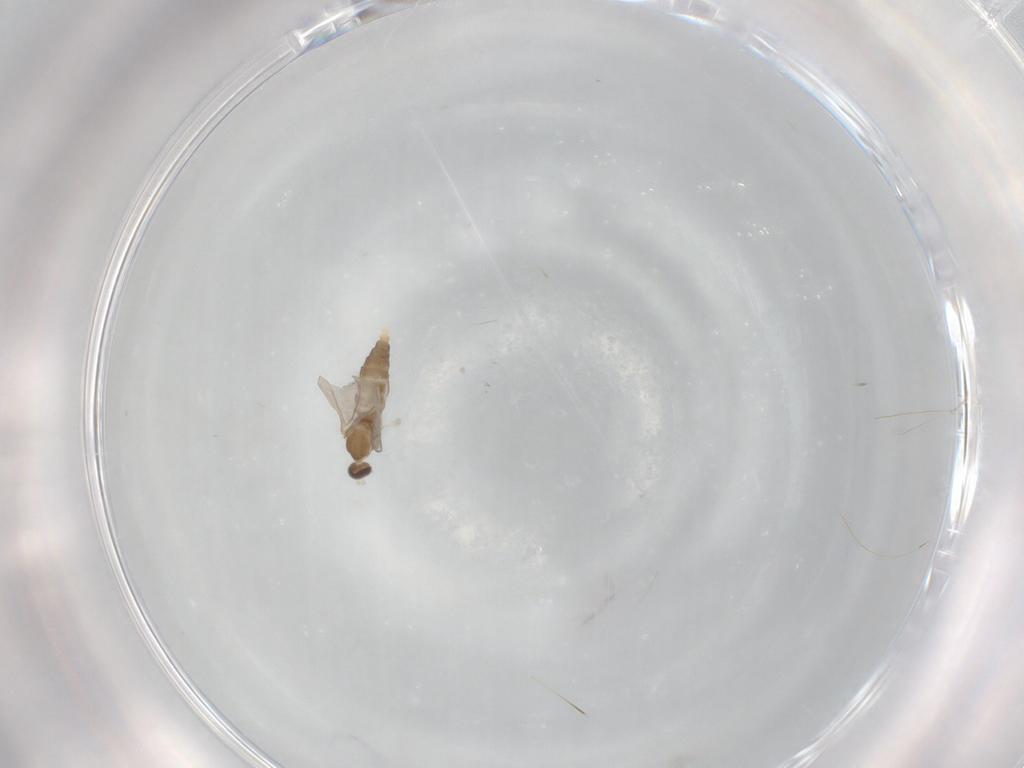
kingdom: Animalia
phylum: Arthropoda
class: Insecta
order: Diptera
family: Cecidomyiidae
